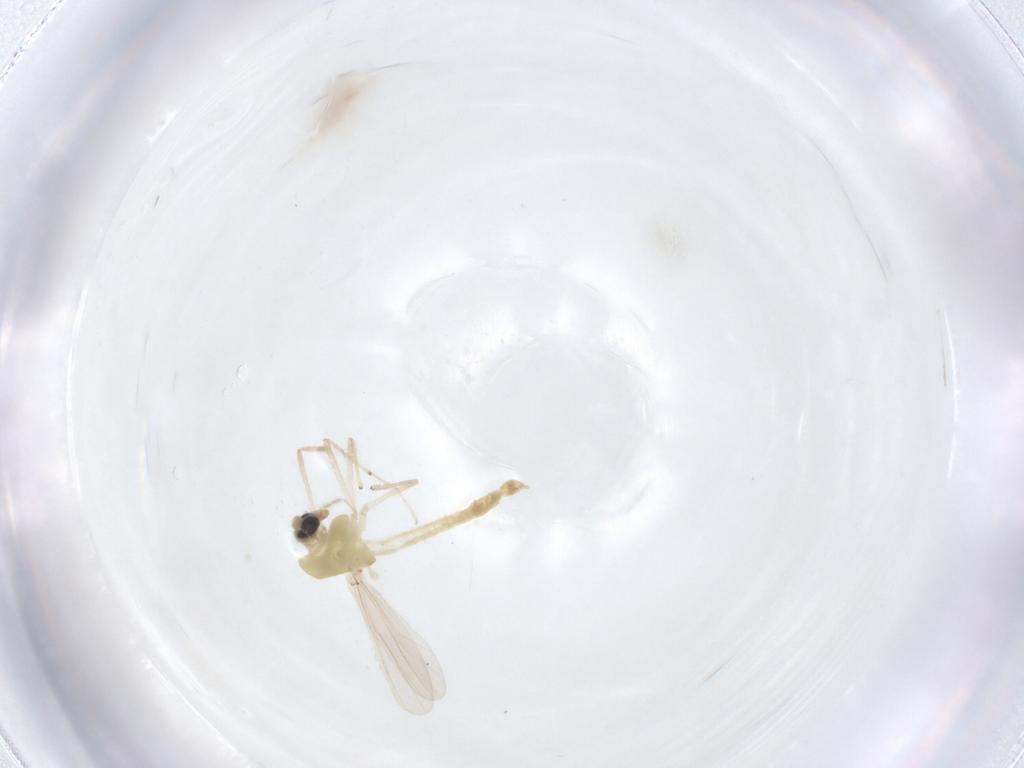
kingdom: Animalia
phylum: Arthropoda
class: Insecta
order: Diptera
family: Chironomidae
